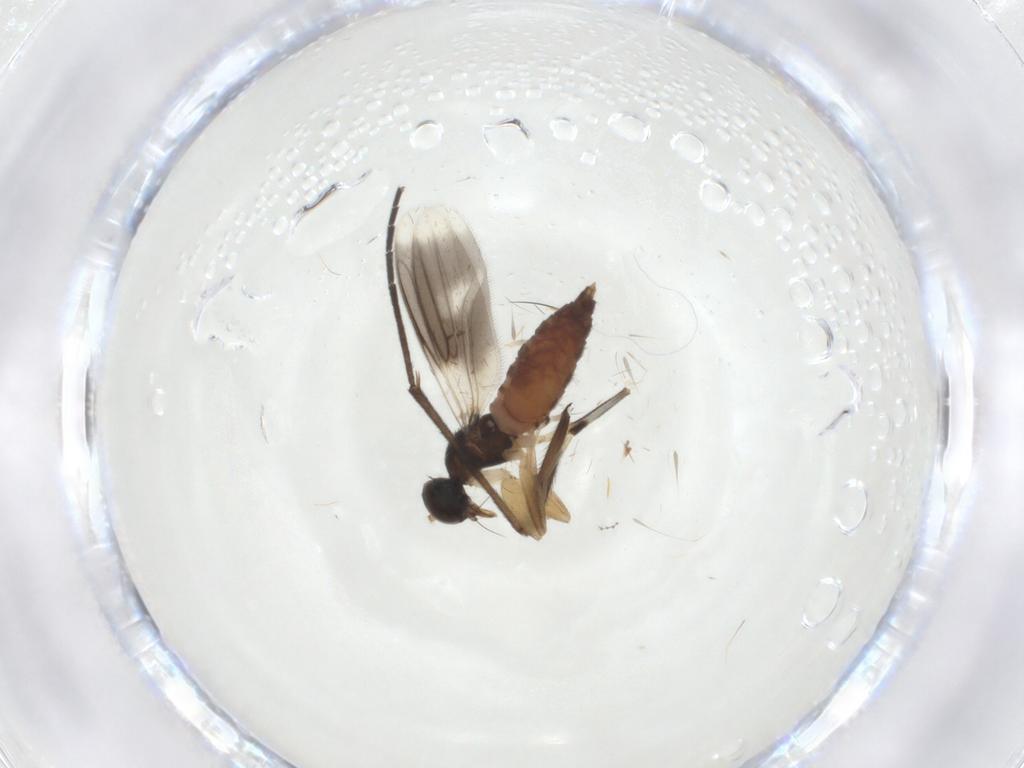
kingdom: Animalia
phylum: Arthropoda
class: Insecta
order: Diptera
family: Hybotidae
